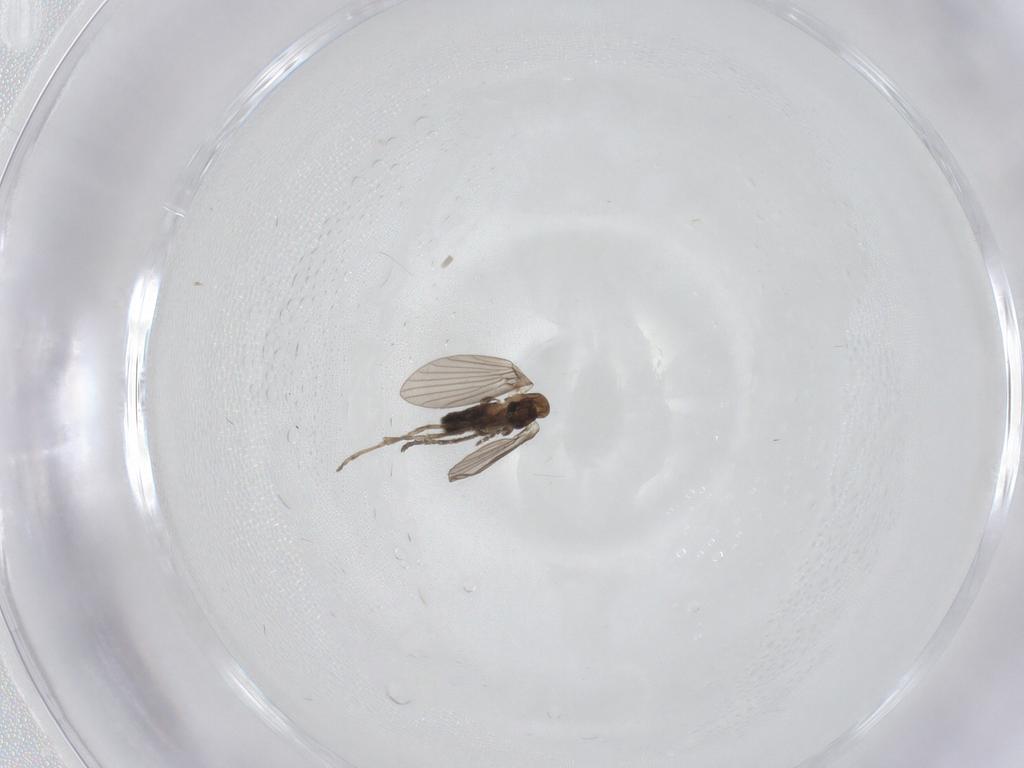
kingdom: Animalia
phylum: Arthropoda
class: Insecta
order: Diptera
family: Psychodidae
